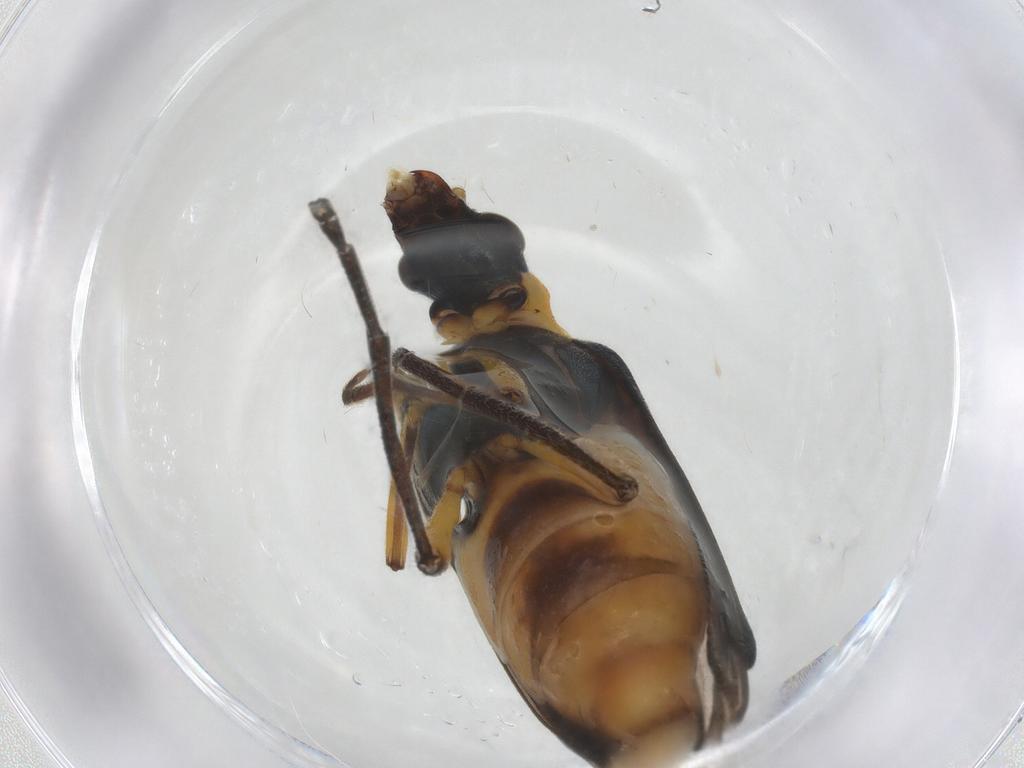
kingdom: Animalia
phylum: Arthropoda
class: Insecta
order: Coleoptera
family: Oedemeridae
